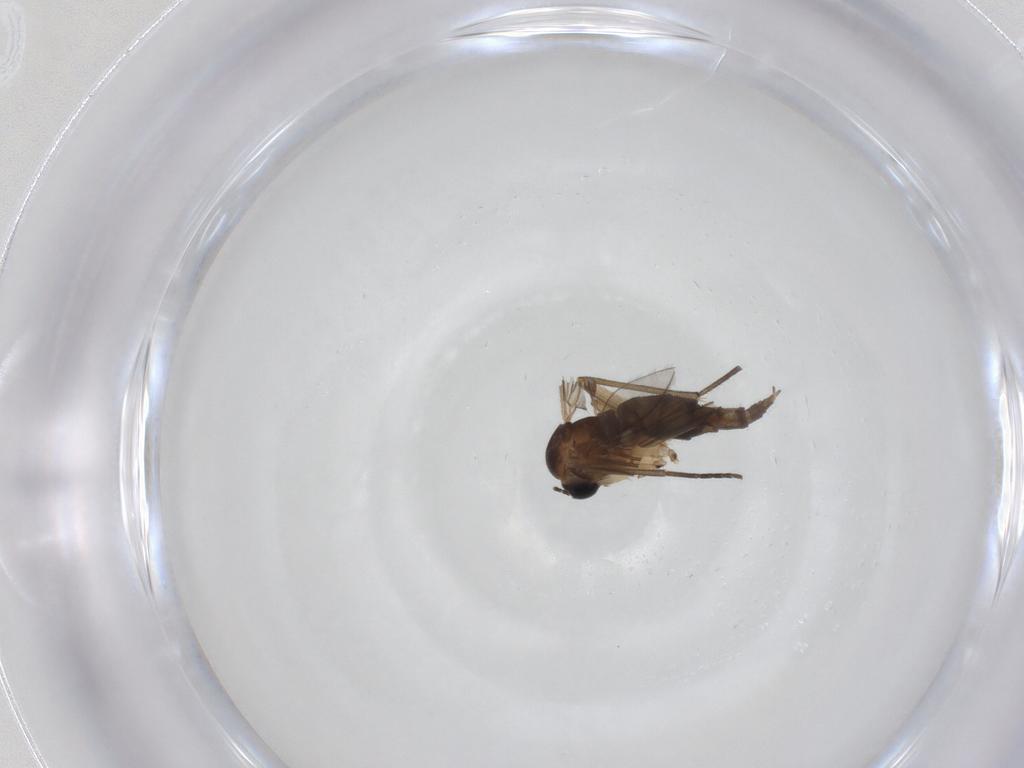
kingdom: Animalia
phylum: Arthropoda
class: Insecta
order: Diptera
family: Sciaridae
